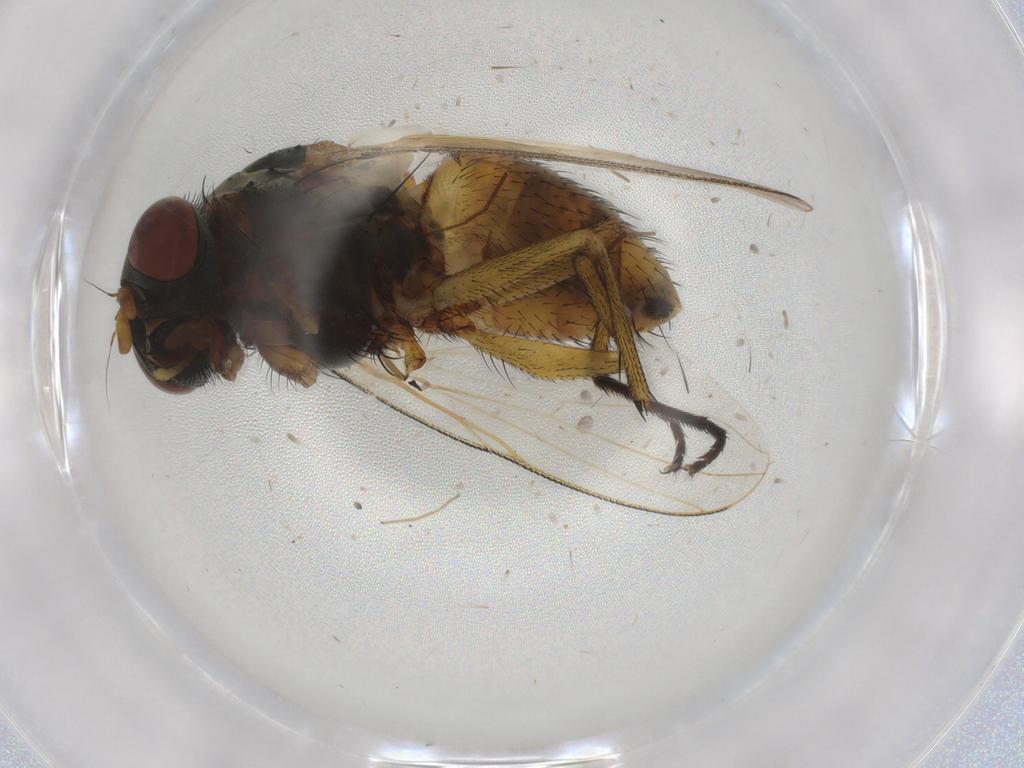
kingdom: Animalia
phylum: Arthropoda
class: Insecta
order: Diptera
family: Muscidae
